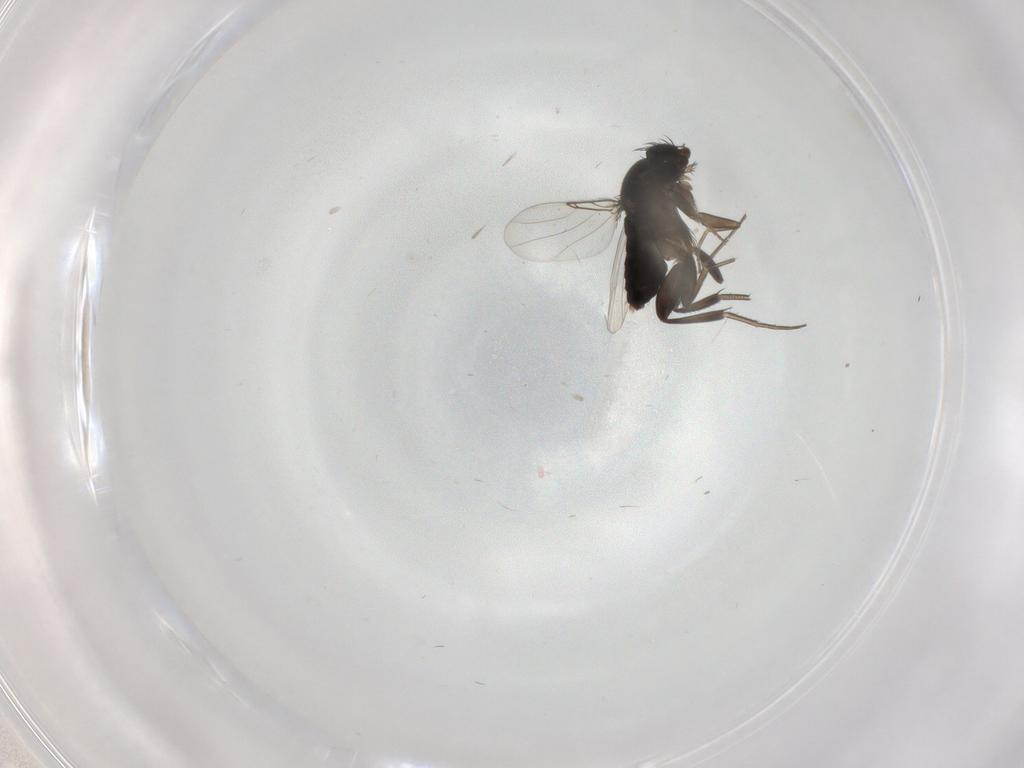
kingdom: Animalia
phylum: Arthropoda
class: Insecta
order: Diptera
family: Phoridae
